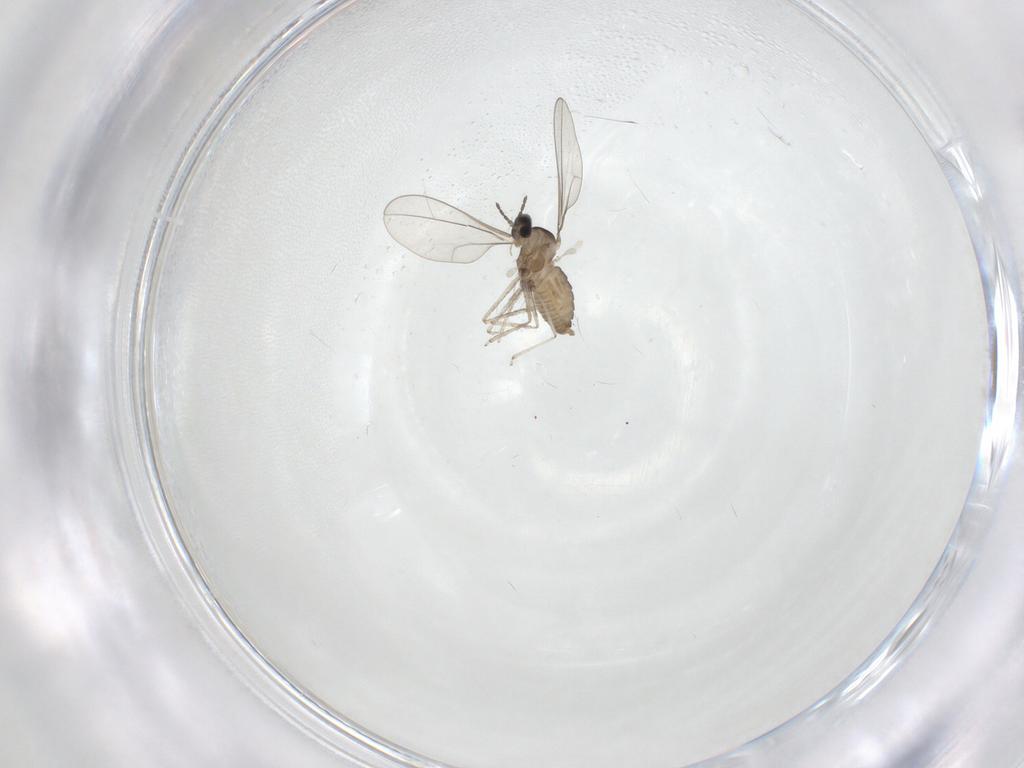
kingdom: Animalia
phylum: Arthropoda
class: Insecta
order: Diptera
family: Cecidomyiidae
